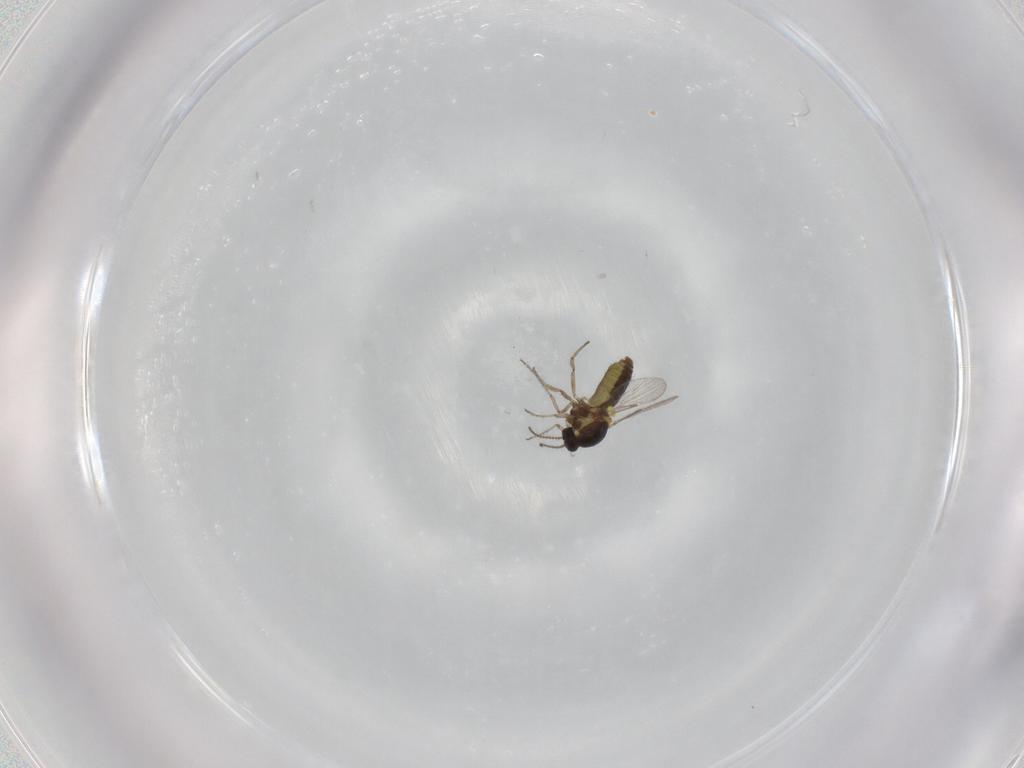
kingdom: Animalia
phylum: Arthropoda
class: Insecta
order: Diptera
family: Ceratopogonidae
